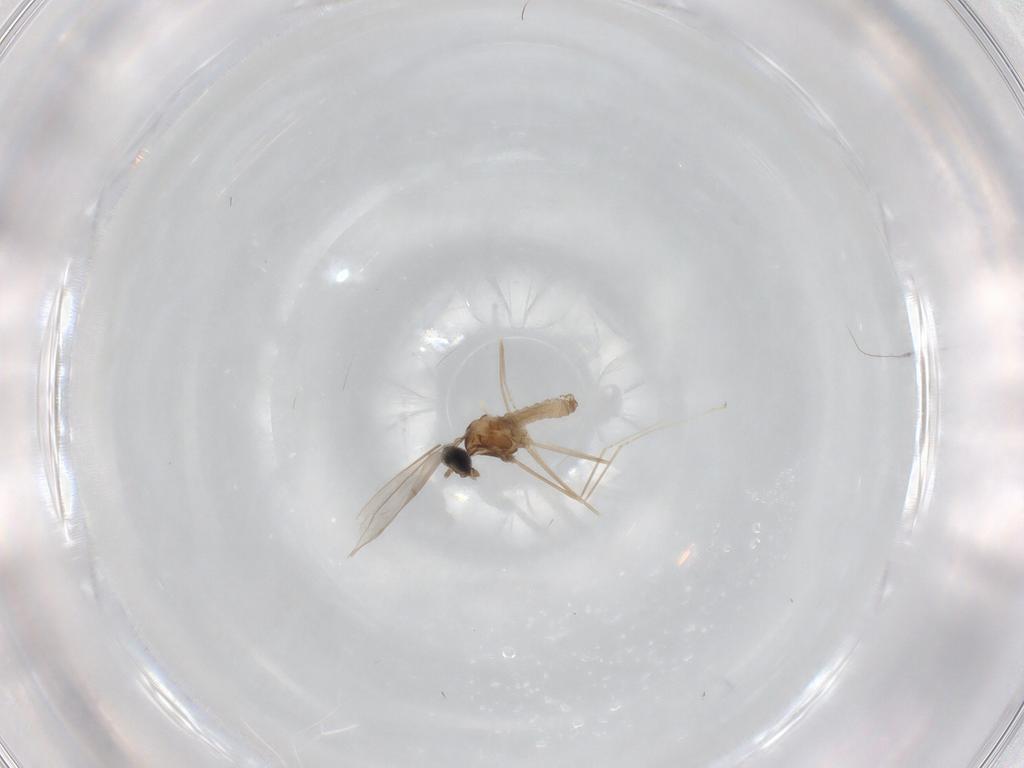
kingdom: Animalia
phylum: Arthropoda
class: Insecta
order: Diptera
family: Cecidomyiidae
